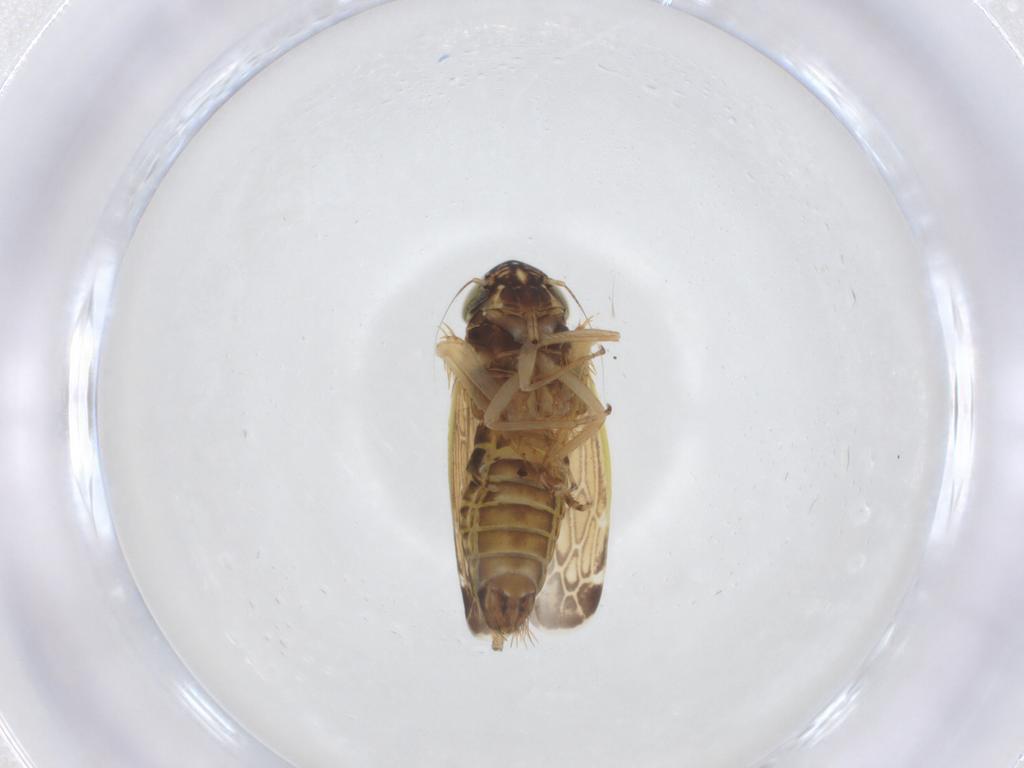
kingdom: Animalia
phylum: Arthropoda
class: Insecta
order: Hemiptera
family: Cicadellidae
